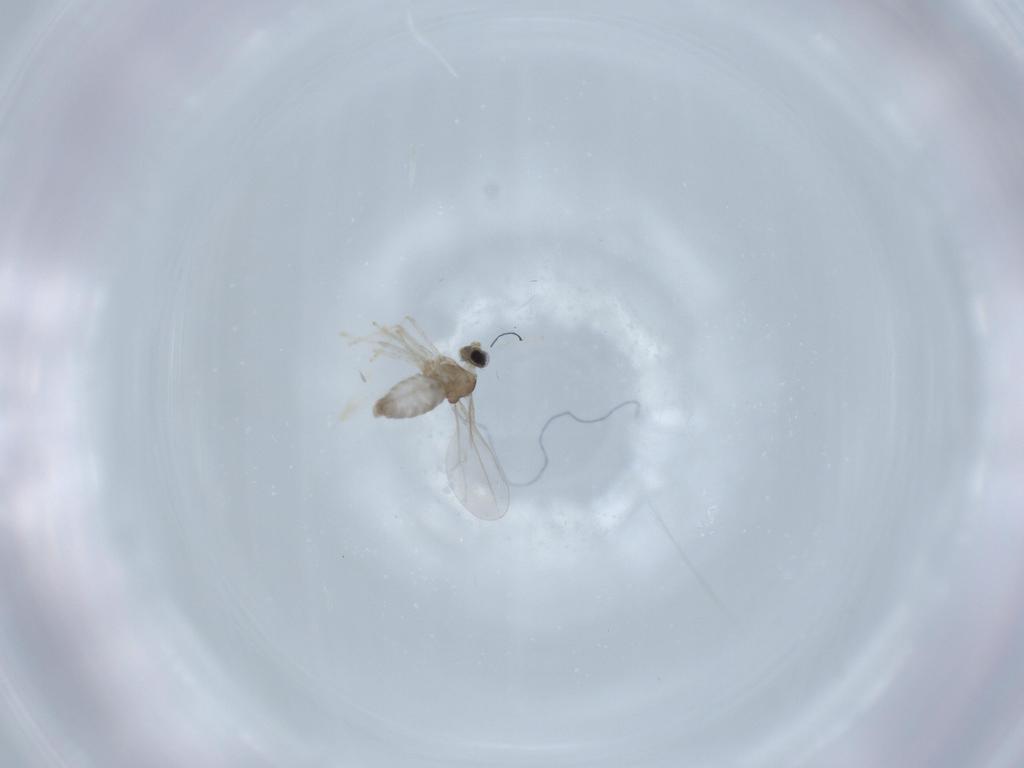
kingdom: Animalia
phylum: Arthropoda
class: Insecta
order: Diptera
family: Cecidomyiidae
